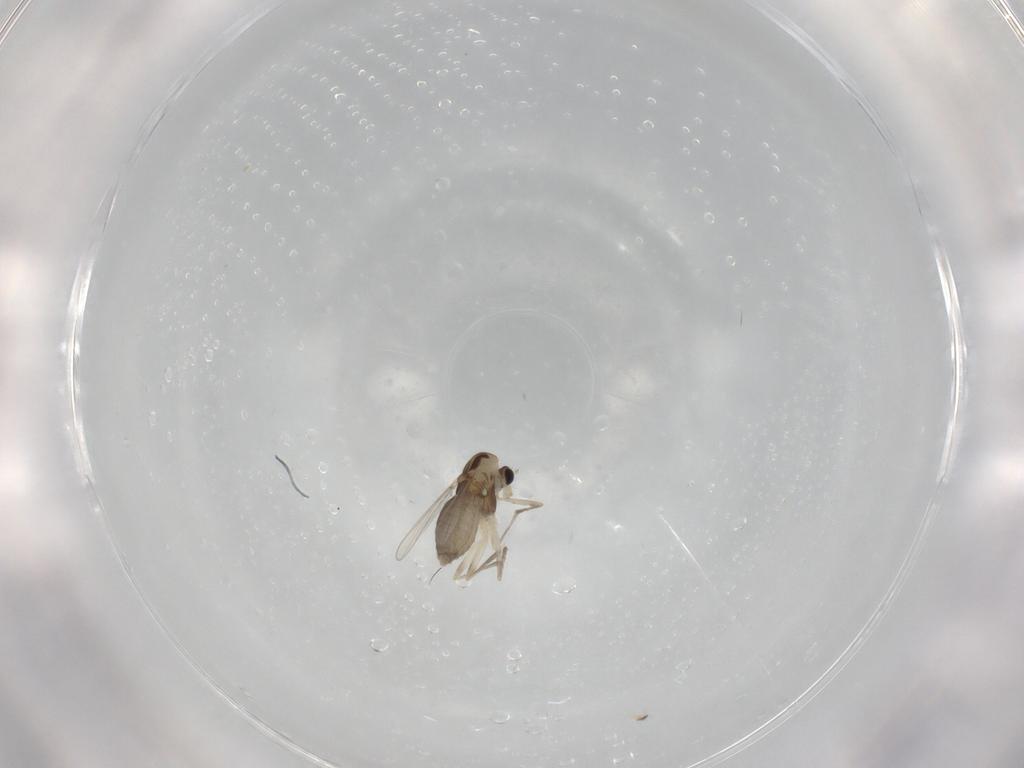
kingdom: Animalia
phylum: Arthropoda
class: Insecta
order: Diptera
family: Chironomidae
